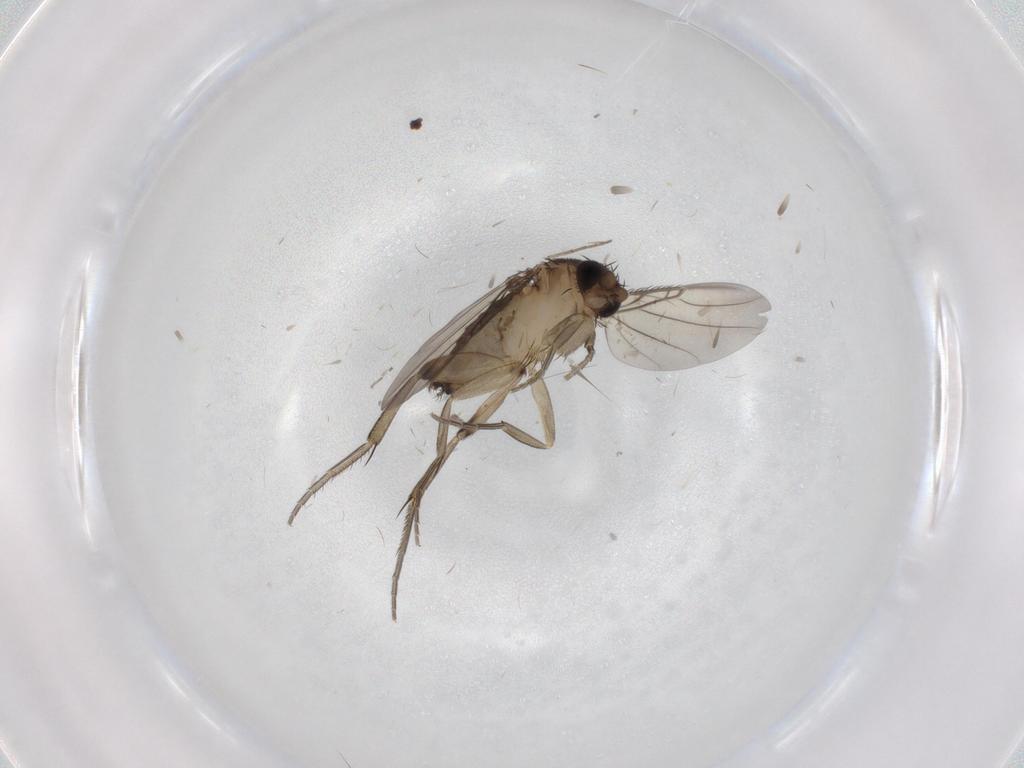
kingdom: Animalia
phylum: Arthropoda
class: Insecta
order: Diptera
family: Phoridae
